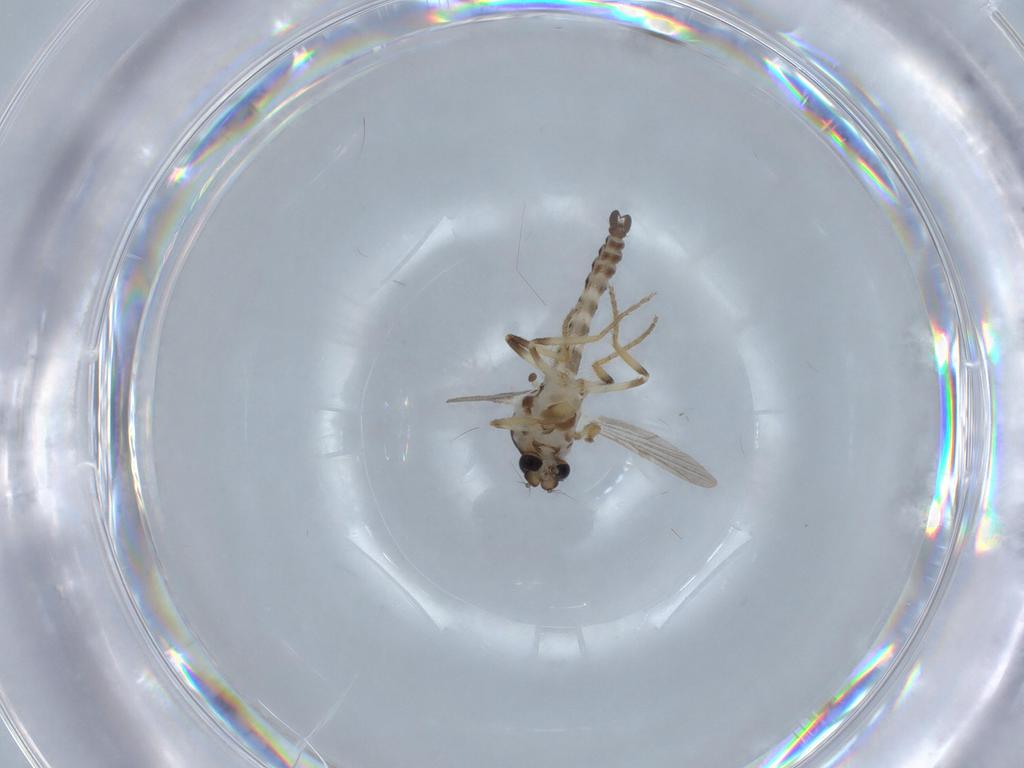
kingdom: Animalia
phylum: Arthropoda
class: Insecta
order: Diptera
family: Ceratopogonidae
